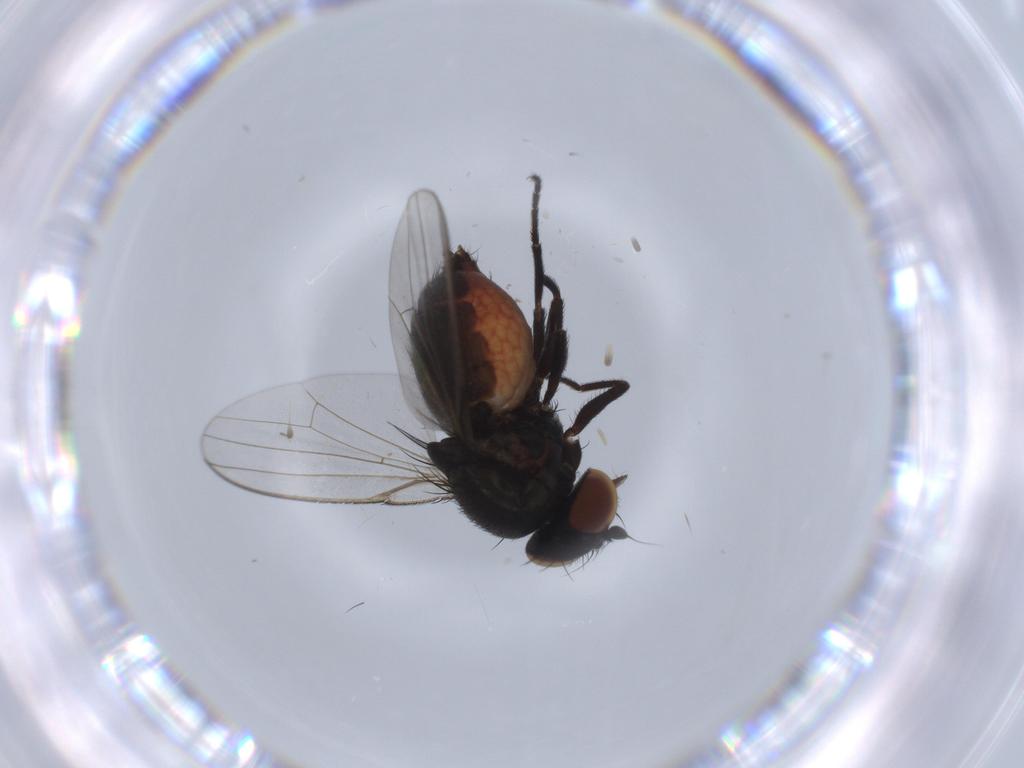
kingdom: Animalia
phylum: Arthropoda
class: Insecta
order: Diptera
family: Milichiidae
